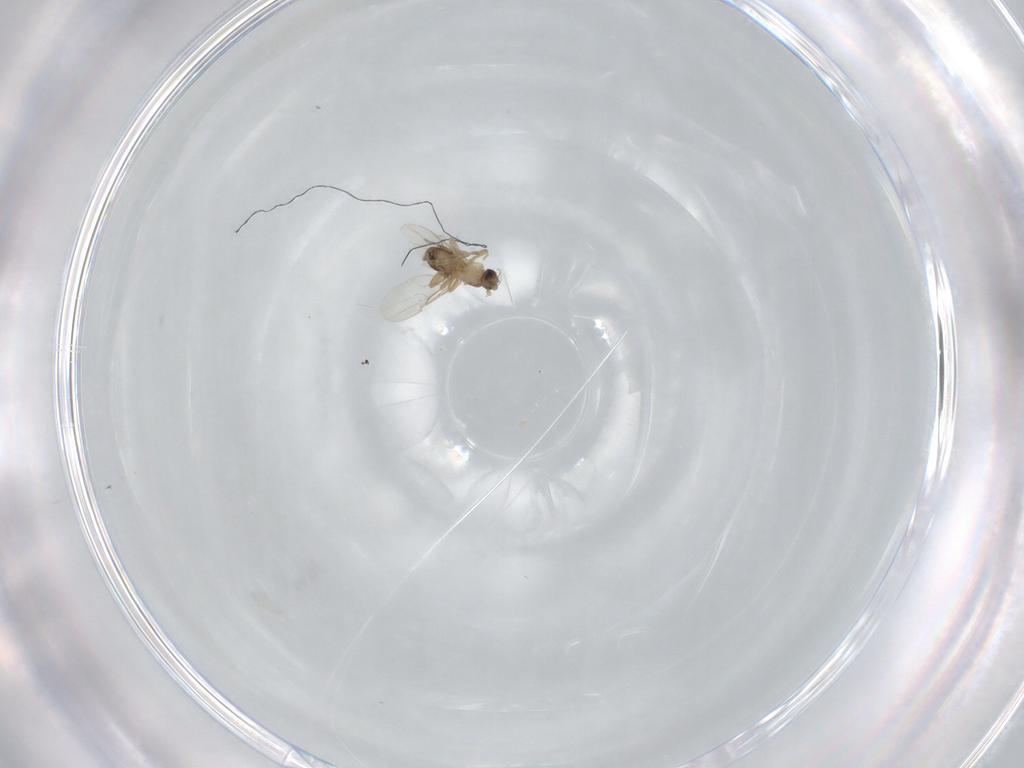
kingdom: Animalia
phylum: Arthropoda
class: Insecta
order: Diptera
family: Phoridae
